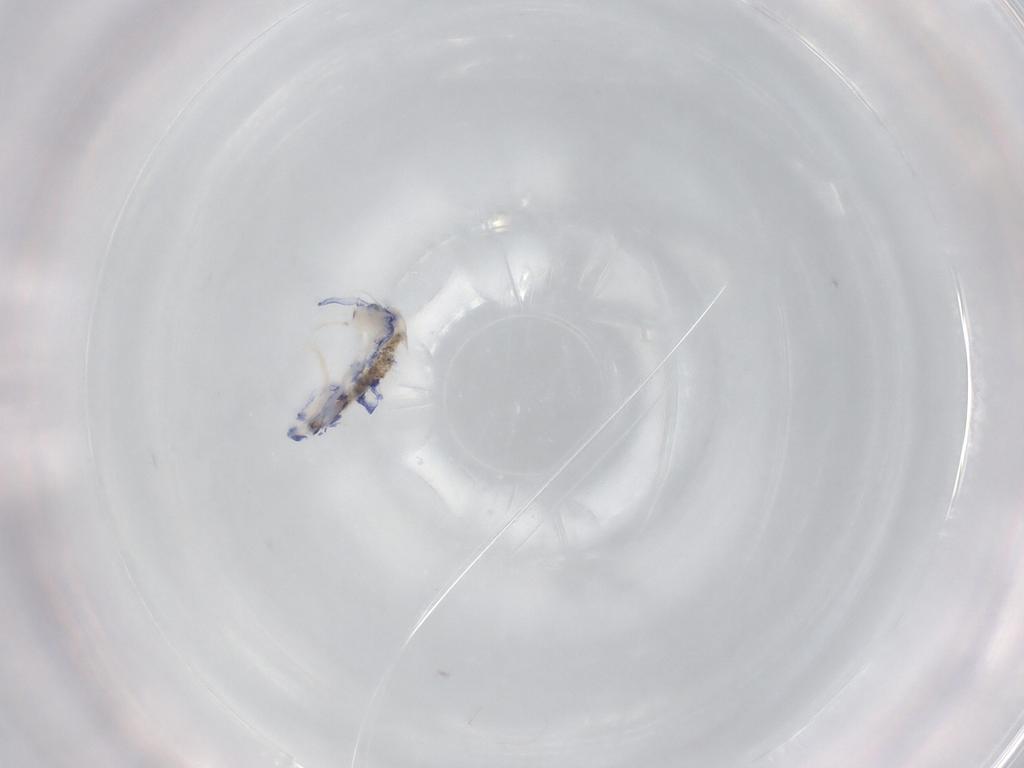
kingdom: Animalia
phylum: Arthropoda
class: Collembola
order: Entomobryomorpha
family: Entomobryidae
